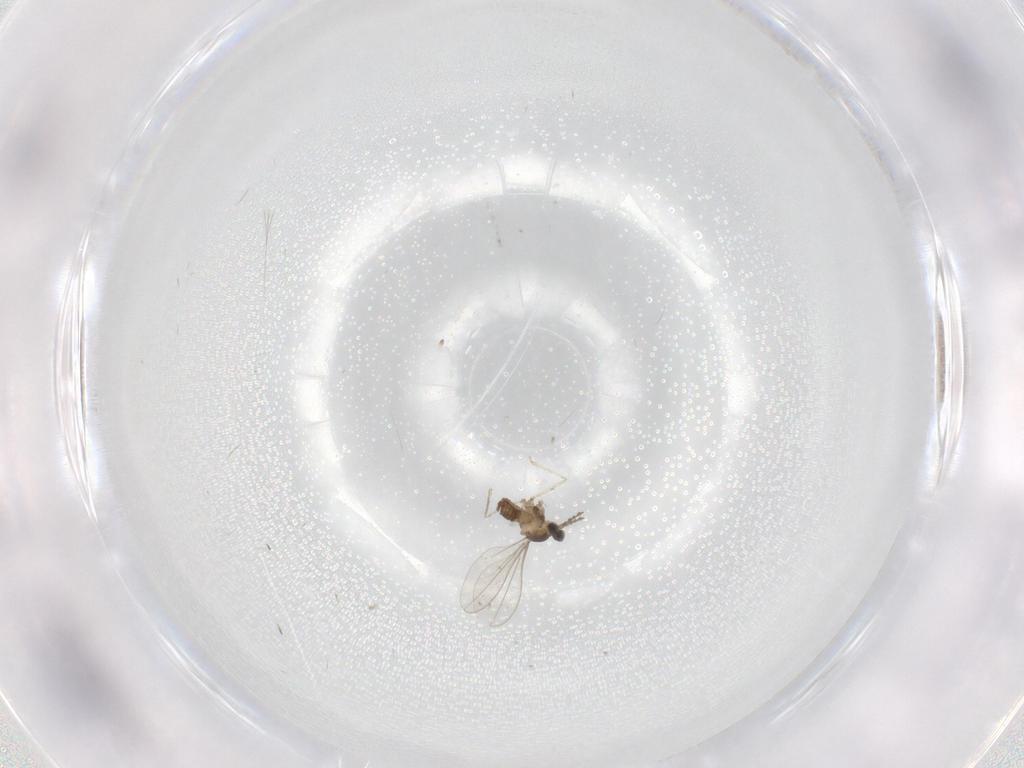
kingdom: Animalia
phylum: Arthropoda
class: Insecta
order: Diptera
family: Cecidomyiidae
